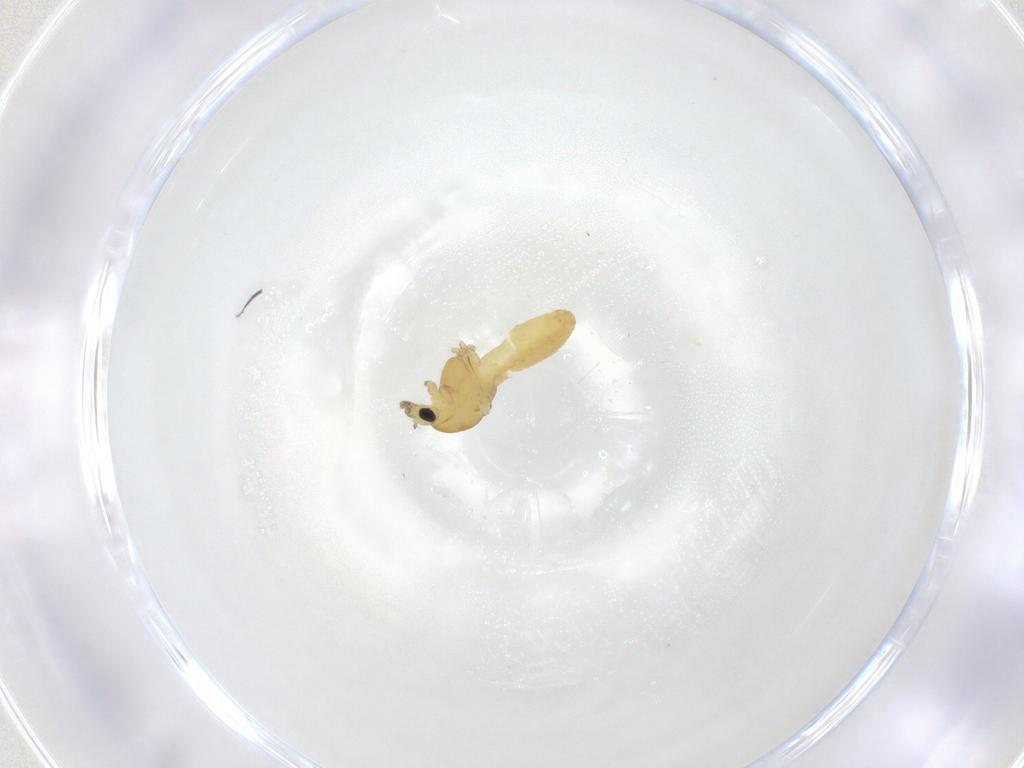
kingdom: Animalia
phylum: Arthropoda
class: Insecta
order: Diptera
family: Chironomidae
